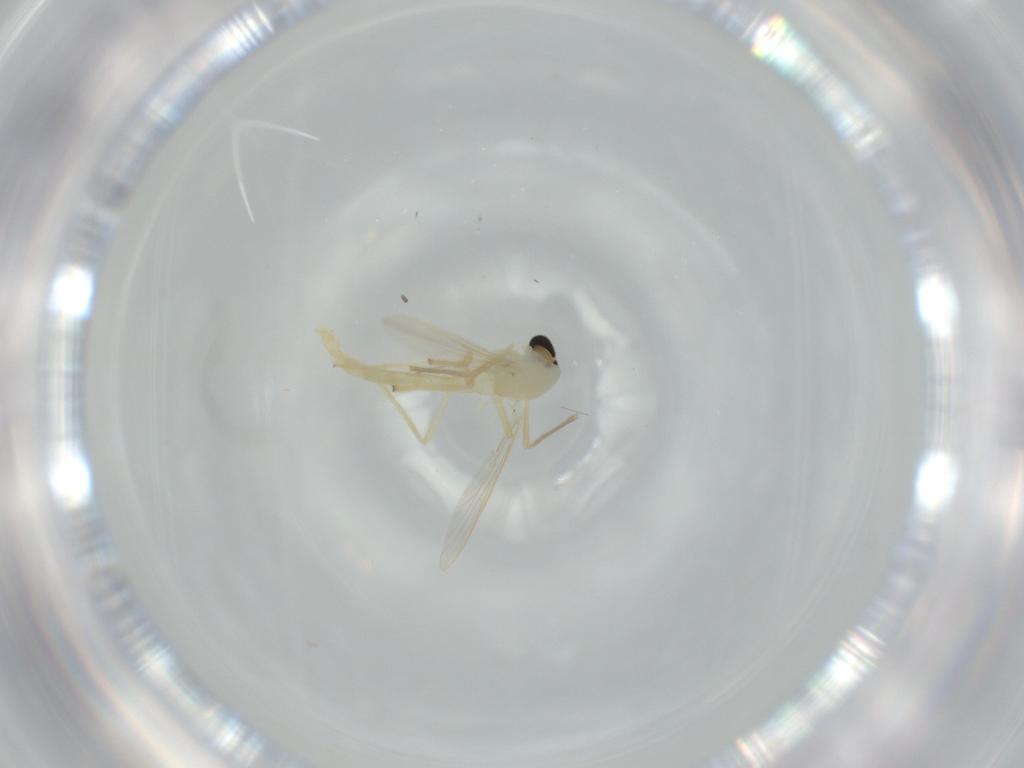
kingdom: Animalia
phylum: Arthropoda
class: Insecta
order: Diptera
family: Chironomidae
